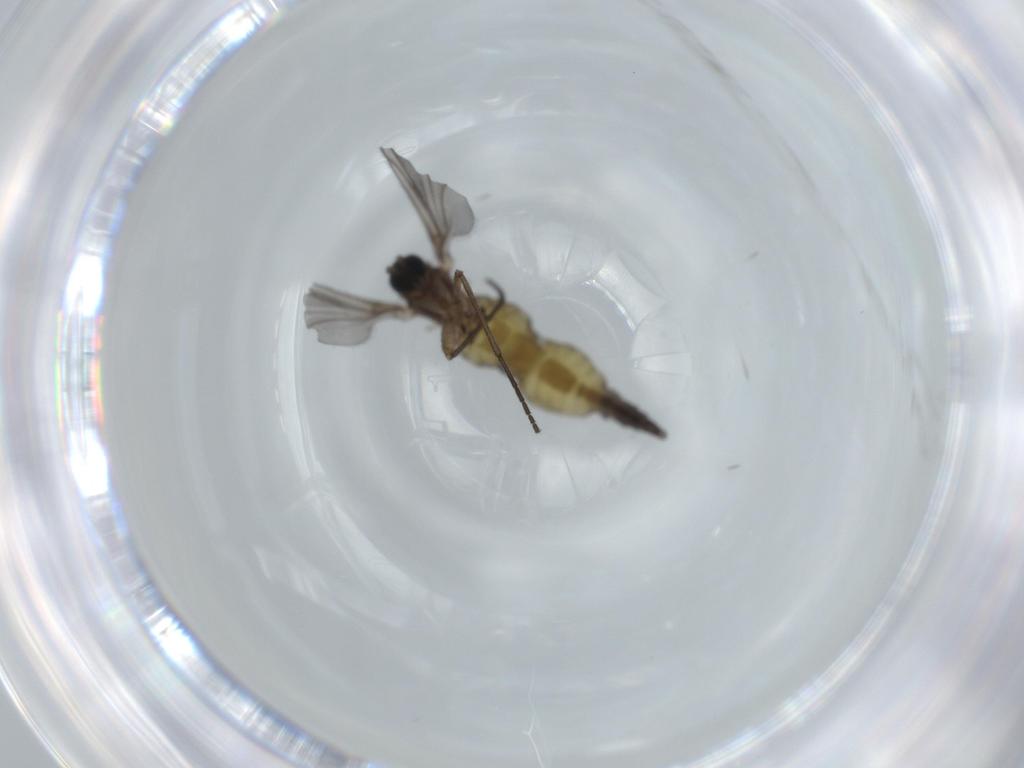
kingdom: Animalia
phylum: Arthropoda
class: Insecta
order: Diptera
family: Sciaridae
